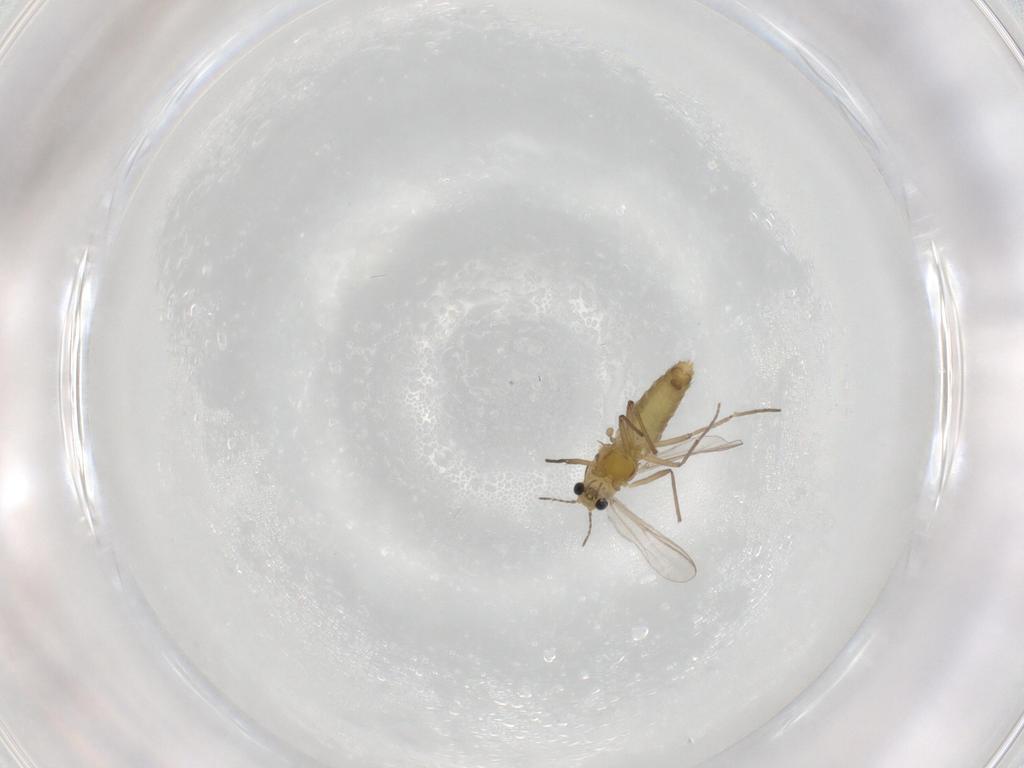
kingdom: Animalia
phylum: Arthropoda
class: Insecta
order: Diptera
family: Chironomidae
